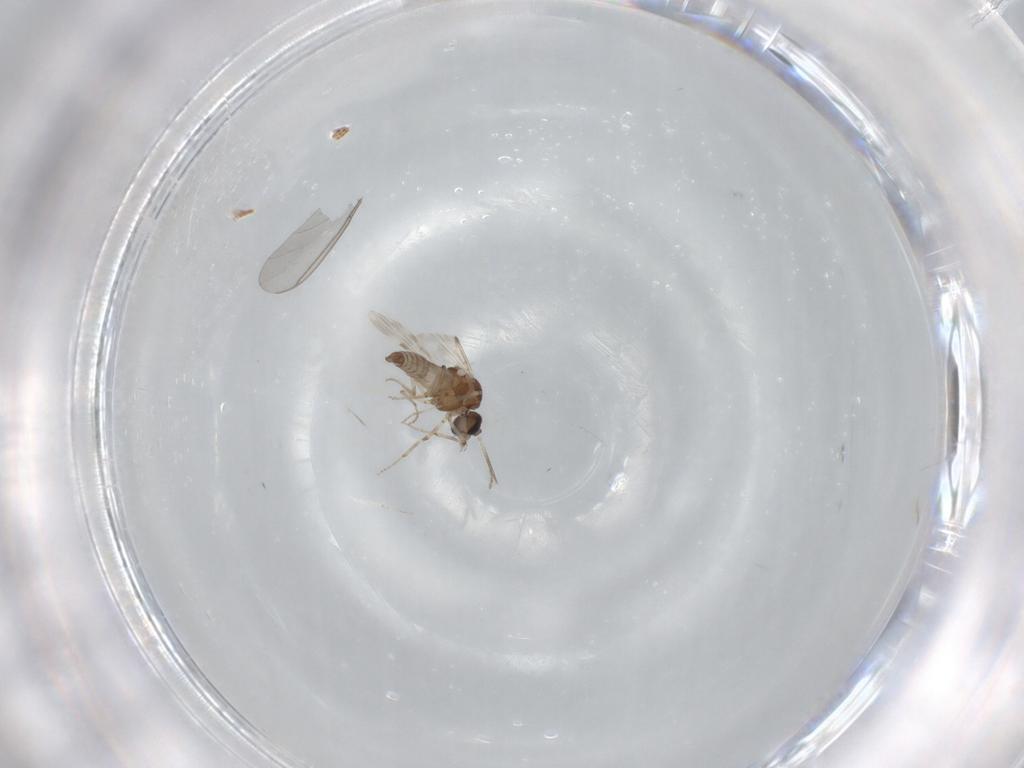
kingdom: Animalia
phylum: Arthropoda
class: Insecta
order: Diptera
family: Ceratopogonidae
